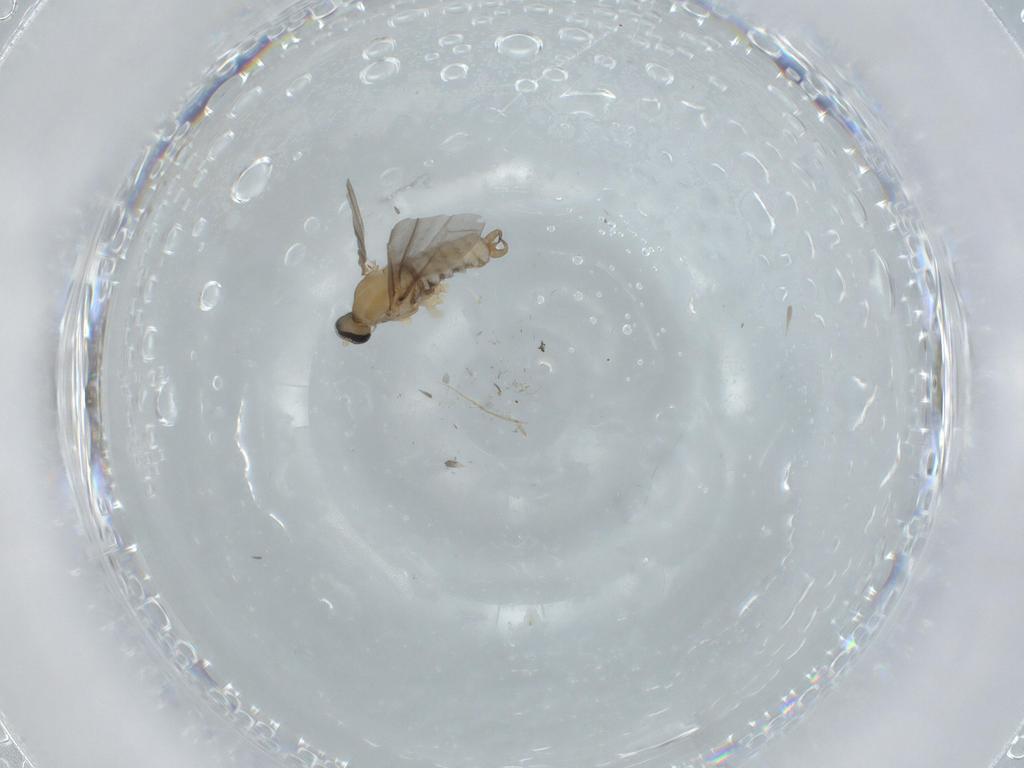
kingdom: Animalia
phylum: Arthropoda
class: Insecta
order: Diptera
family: Cecidomyiidae
